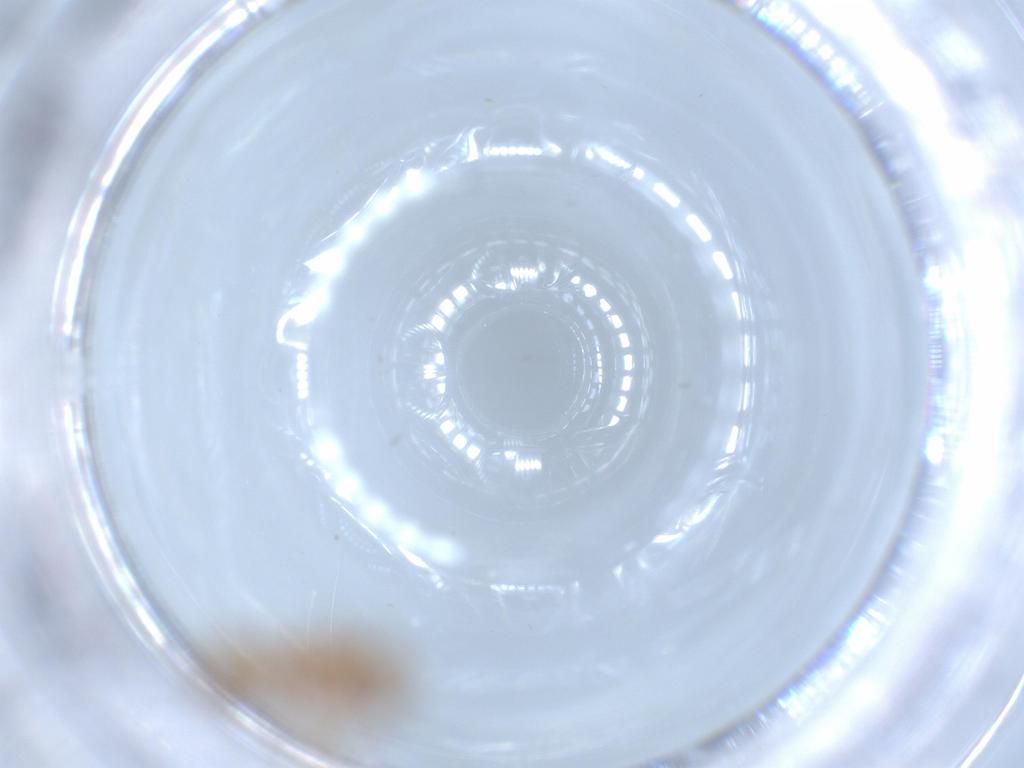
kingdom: Animalia
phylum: Arthropoda
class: Insecta
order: Hymenoptera
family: Formicidae
